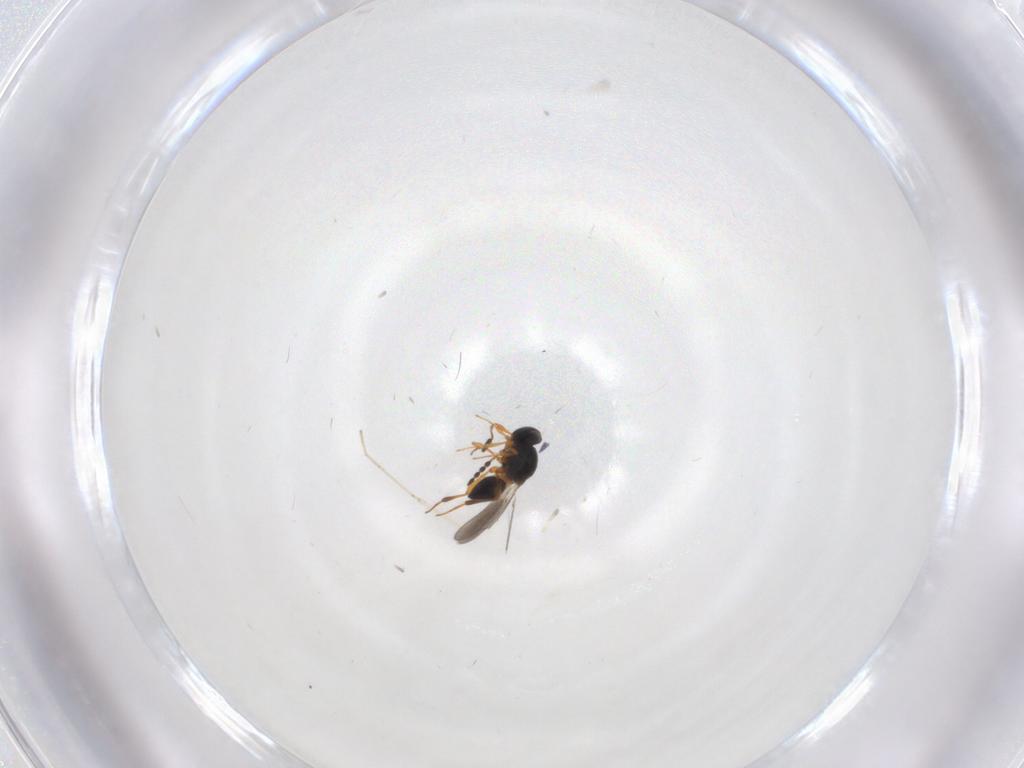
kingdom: Animalia
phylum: Arthropoda
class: Insecta
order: Hymenoptera
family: Platygastridae
